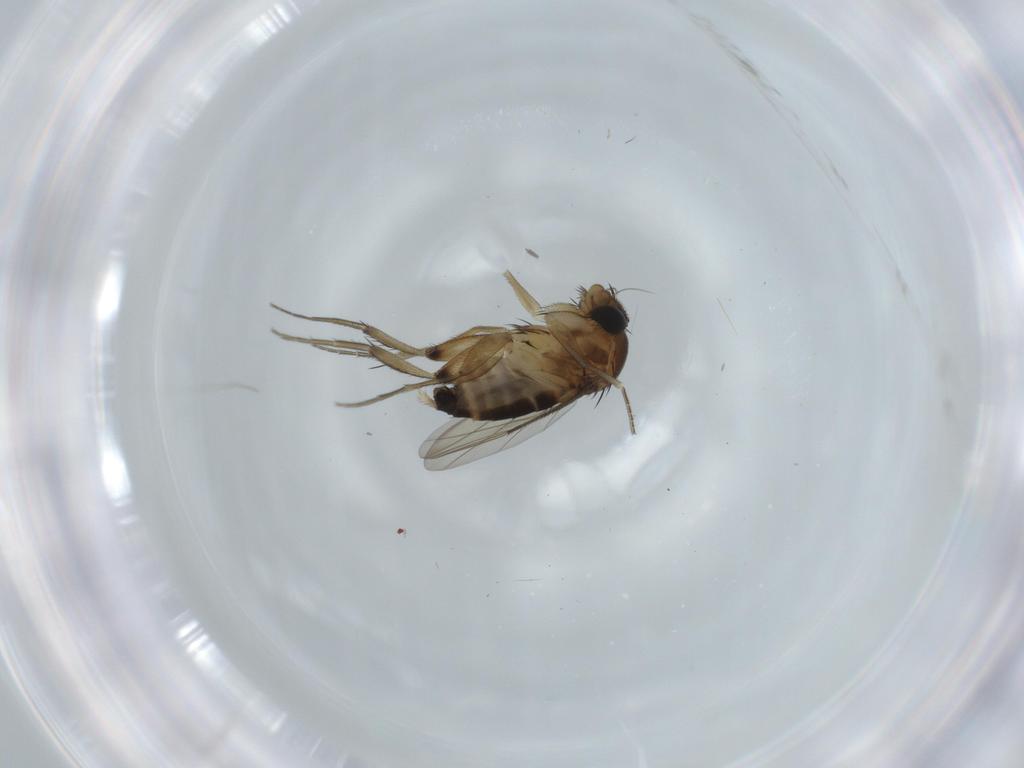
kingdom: Animalia
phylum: Arthropoda
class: Insecta
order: Diptera
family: Phoridae
